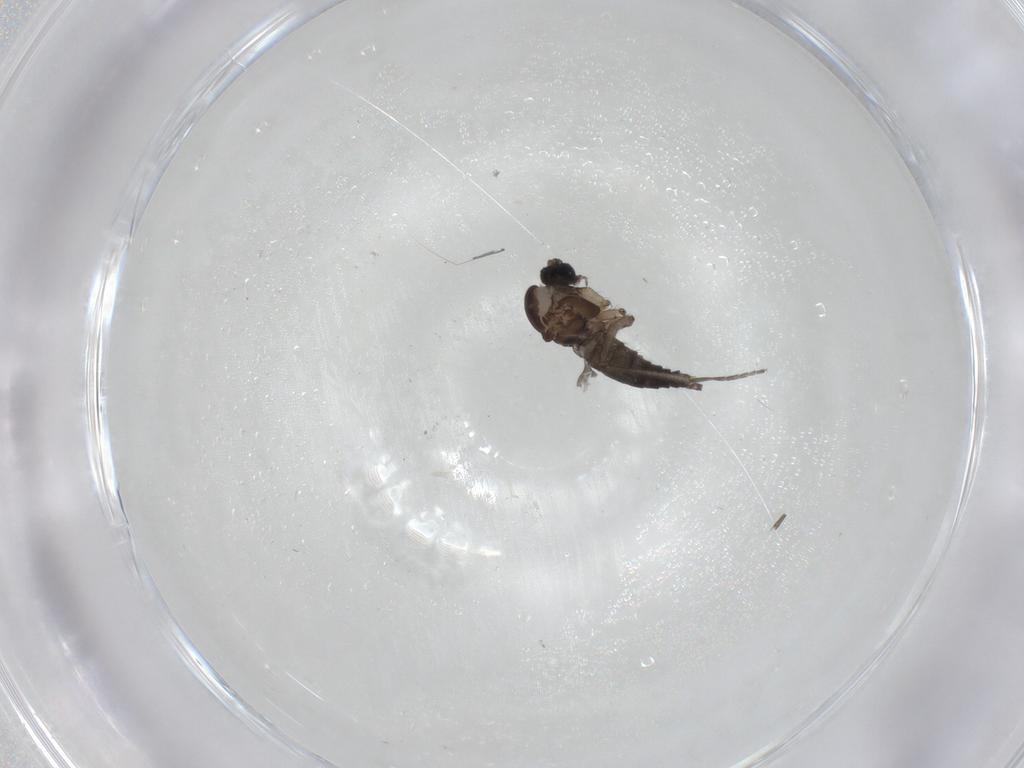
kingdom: Animalia
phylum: Arthropoda
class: Insecta
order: Diptera
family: Sciaridae
